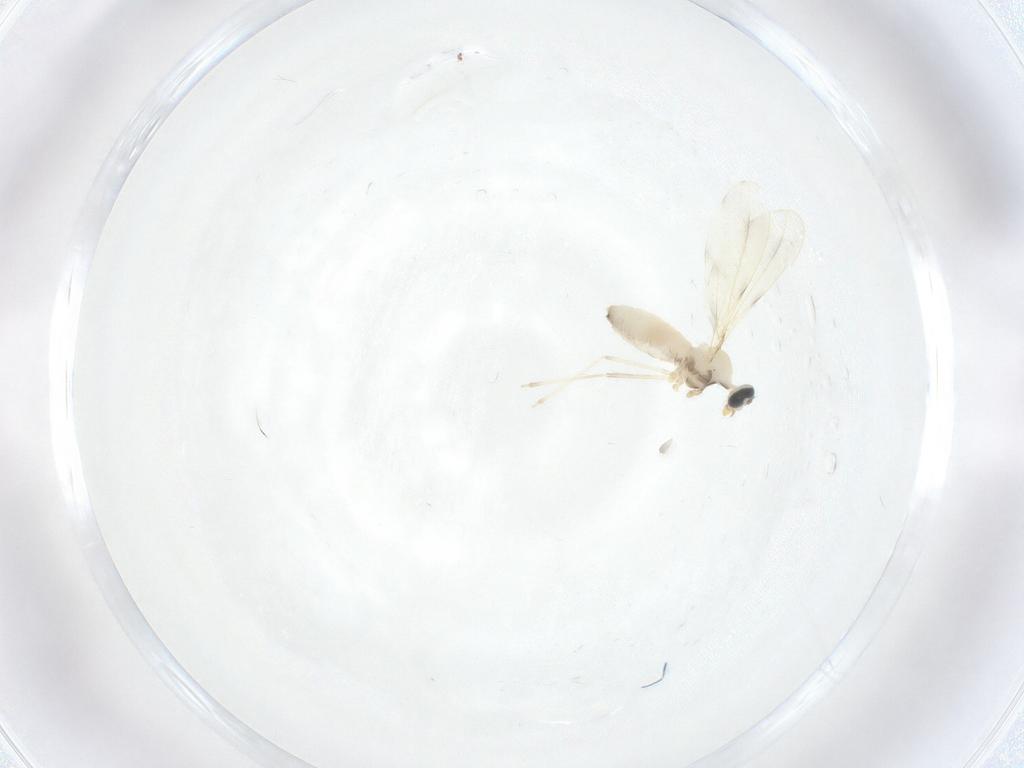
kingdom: Animalia
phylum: Arthropoda
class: Insecta
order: Diptera
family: Cecidomyiidae
